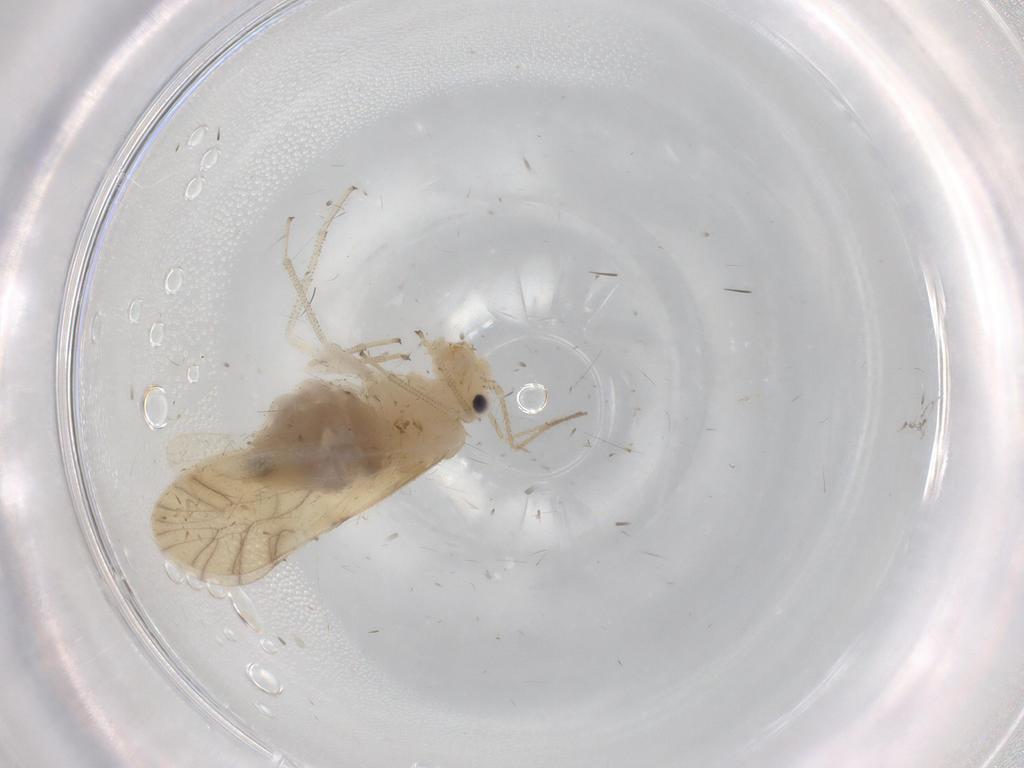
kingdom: Animalia
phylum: Arthropoda
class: Insecta
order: Psocodea
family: Caeciliusidae
